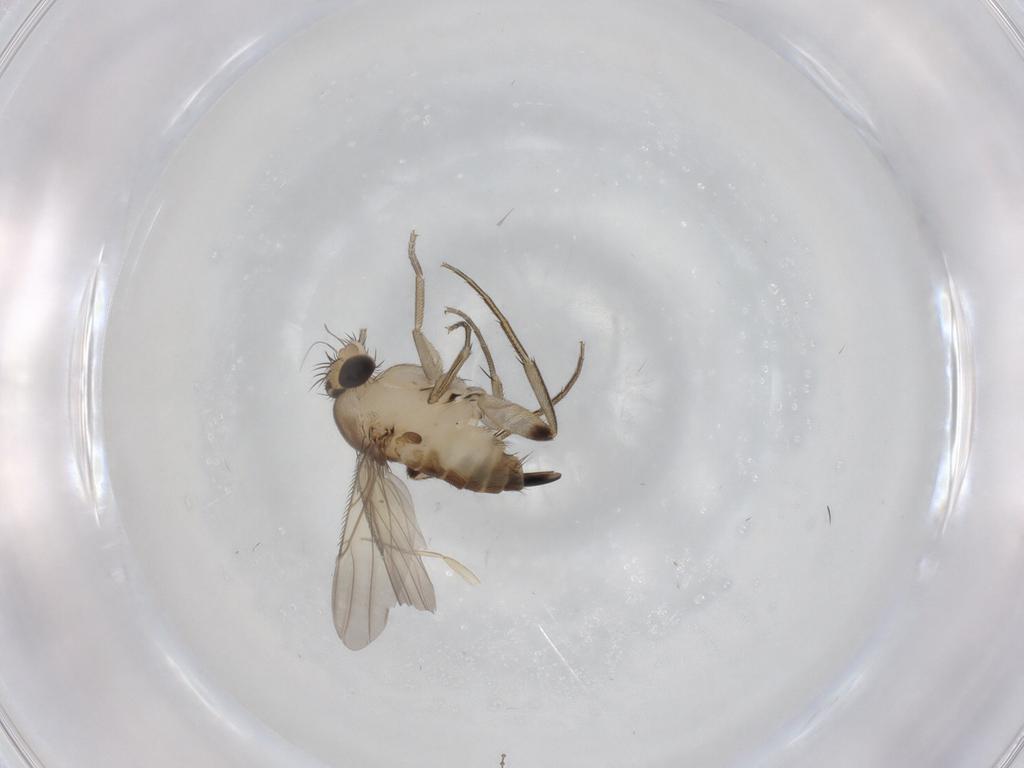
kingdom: Animalia
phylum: Arthropoda
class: Insecta
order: Diptera
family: Phoridae
